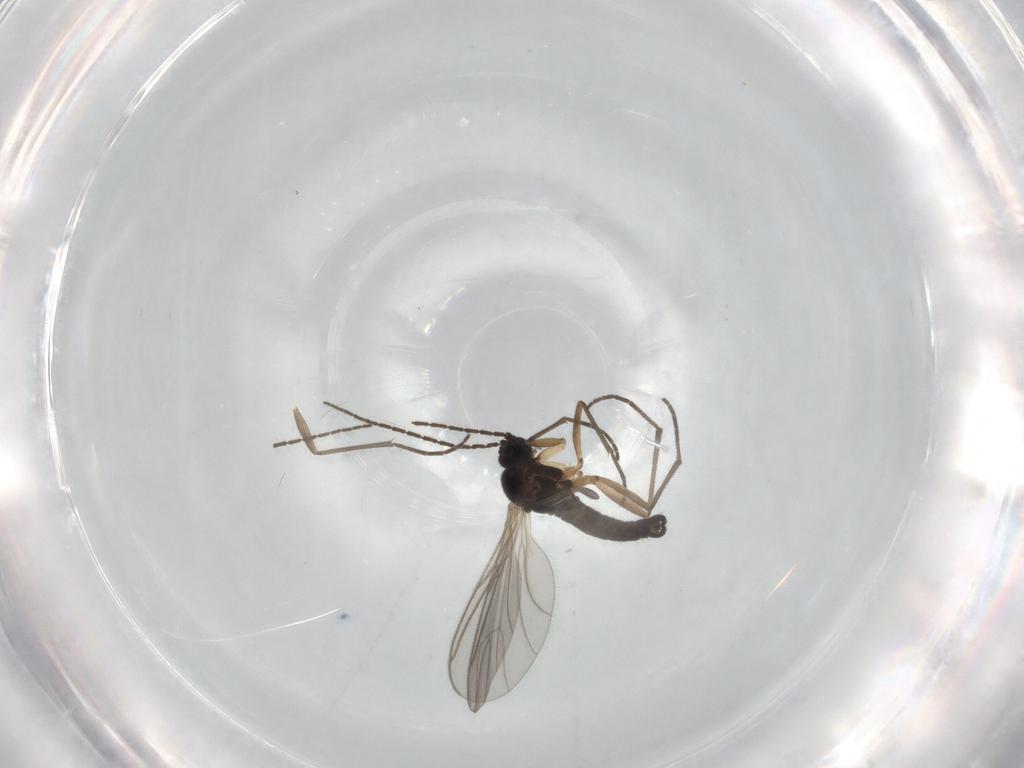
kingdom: Animalia
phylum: Arthropoda
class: Insecta
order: Diptera
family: Sciaridae
